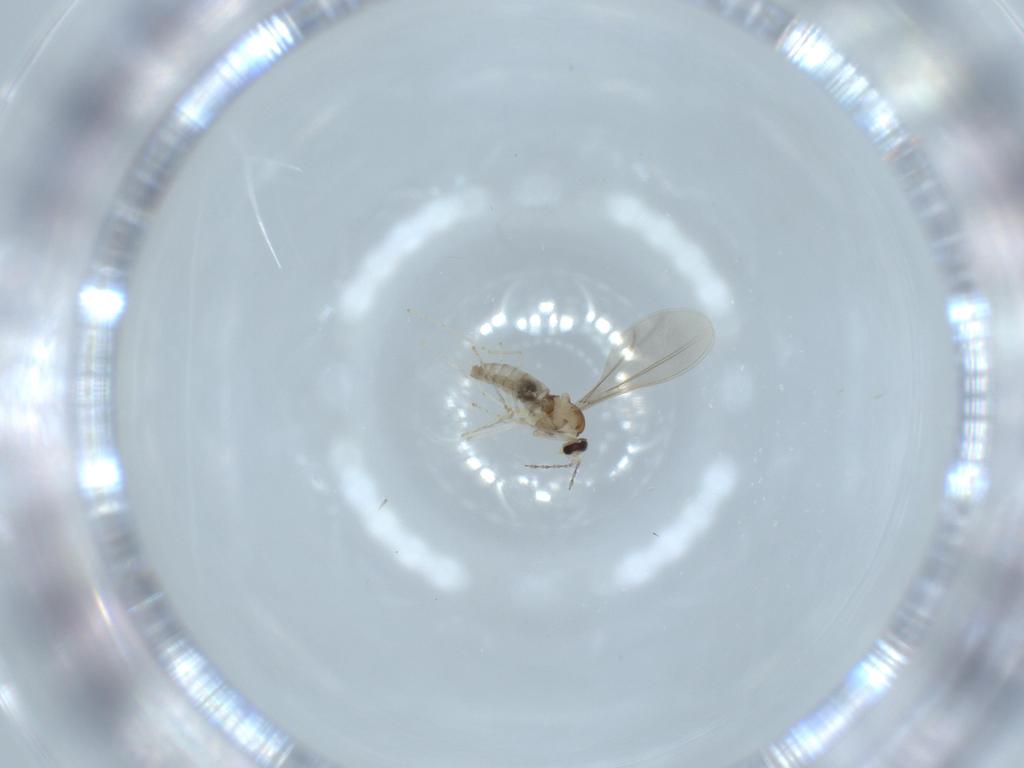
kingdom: Animalia
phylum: Arthropoda
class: Insecta
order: Diptera
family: Cecidomyiidae
